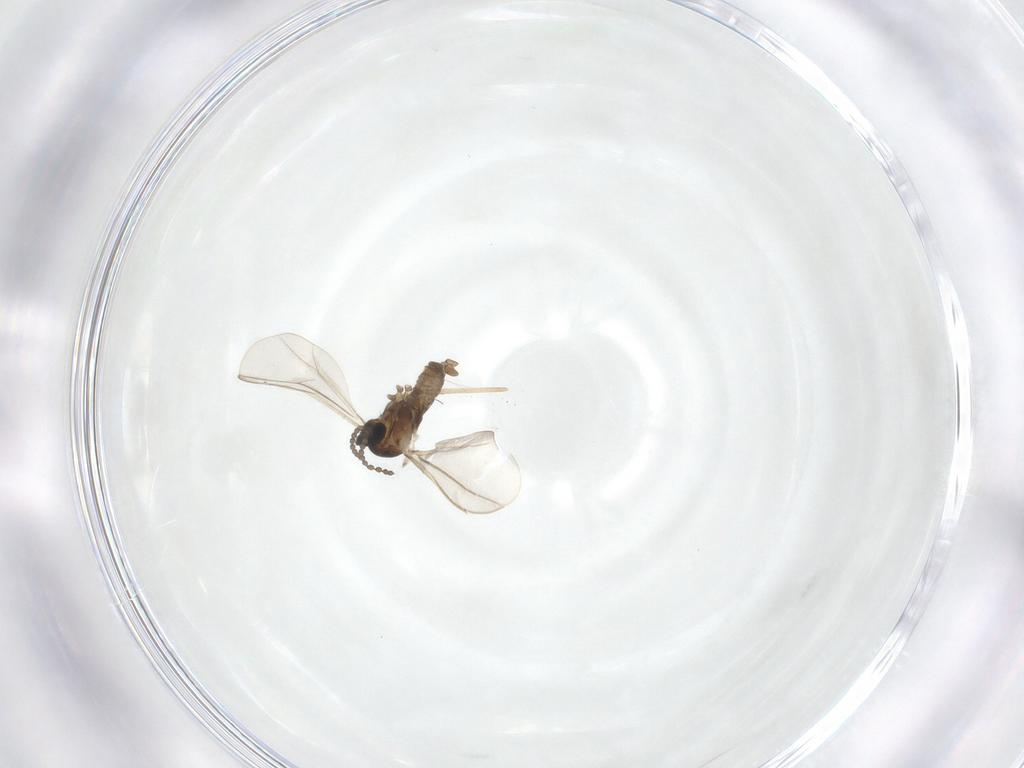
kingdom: Animalia
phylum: Arthropoda
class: Insecta
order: Diptera
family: Cecidomyiidae
